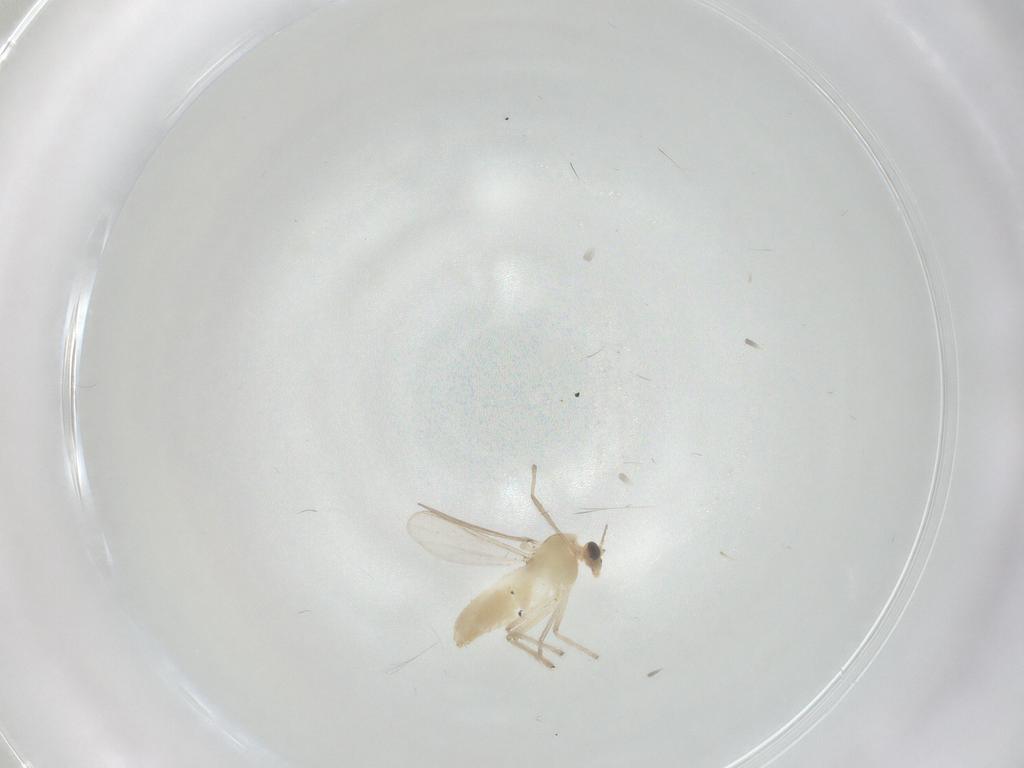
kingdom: Animalia
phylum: Arthropoda
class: Insecta
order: Diptera
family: Chironomidae
